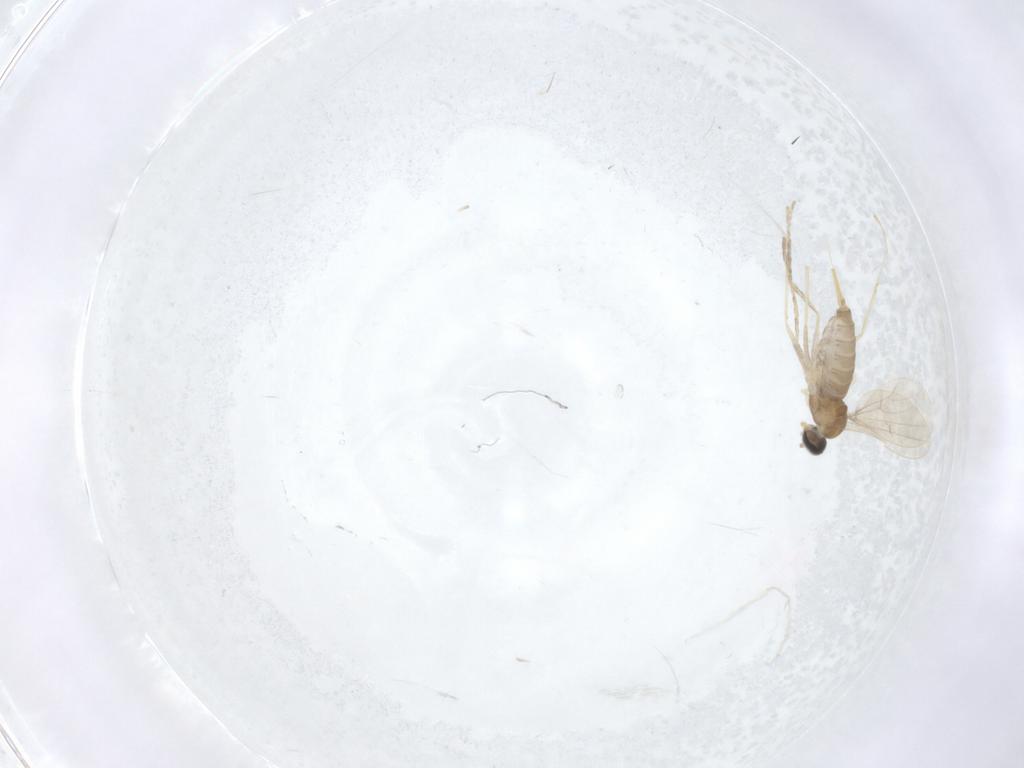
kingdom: Animalia
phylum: Arthropoda
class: Insecta
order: Diptera
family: Cecidomyiidae
